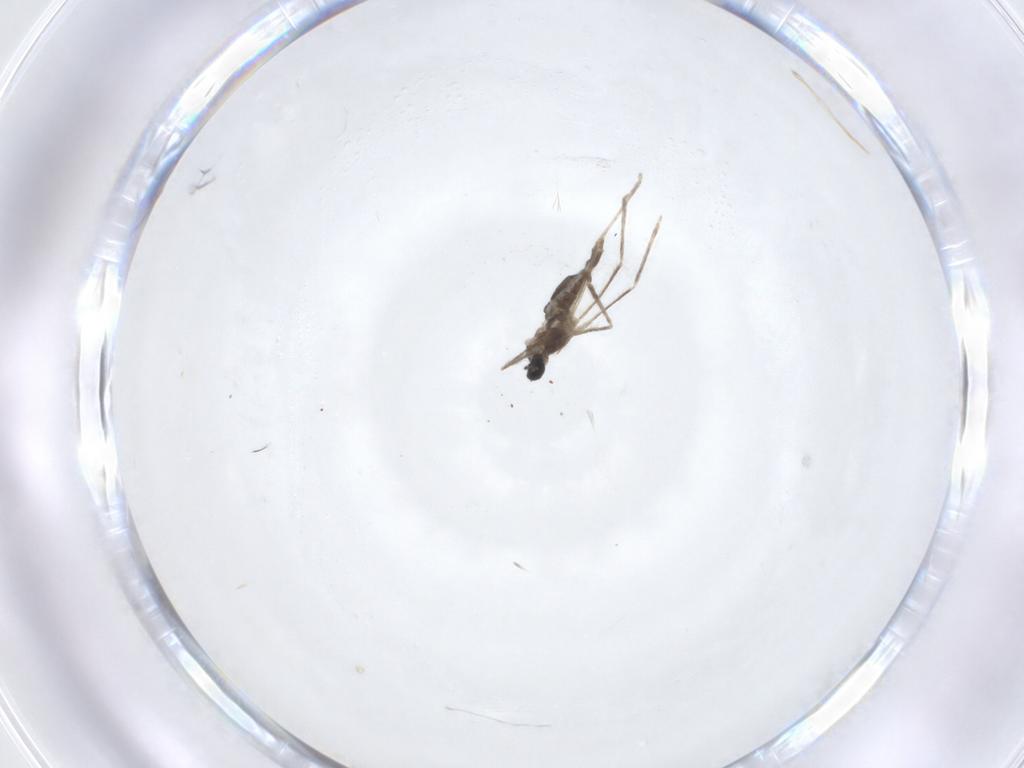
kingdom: Animalia
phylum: Arthropoda
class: Insecta
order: Diptera
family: Cecidomyiidae
